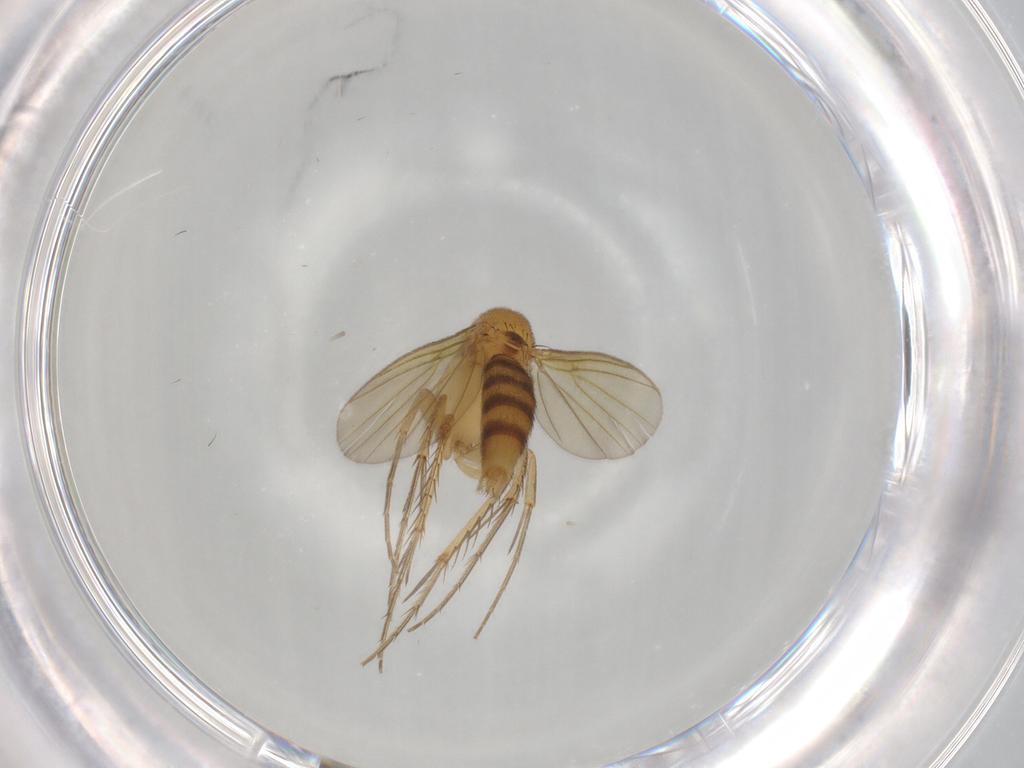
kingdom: Animalia
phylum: Arthropoda
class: Insecta
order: Diptera
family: Mycetophilidae
